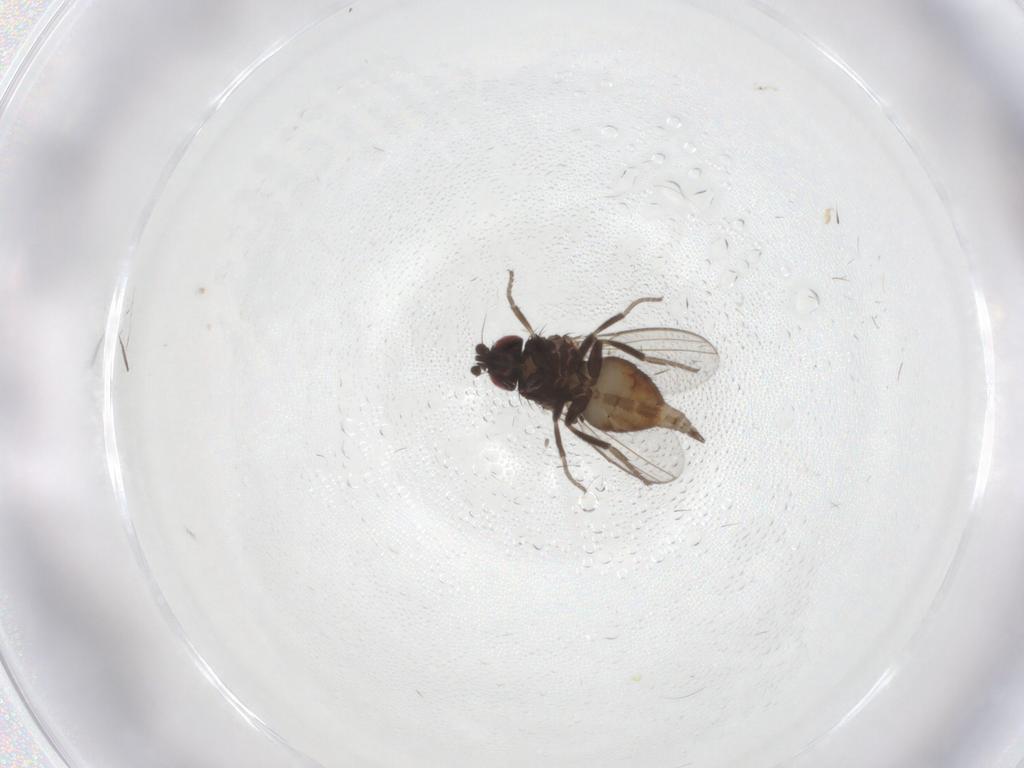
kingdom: Animalia
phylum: Arthropoda
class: Insecta
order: Diptera
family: Milichiidae
